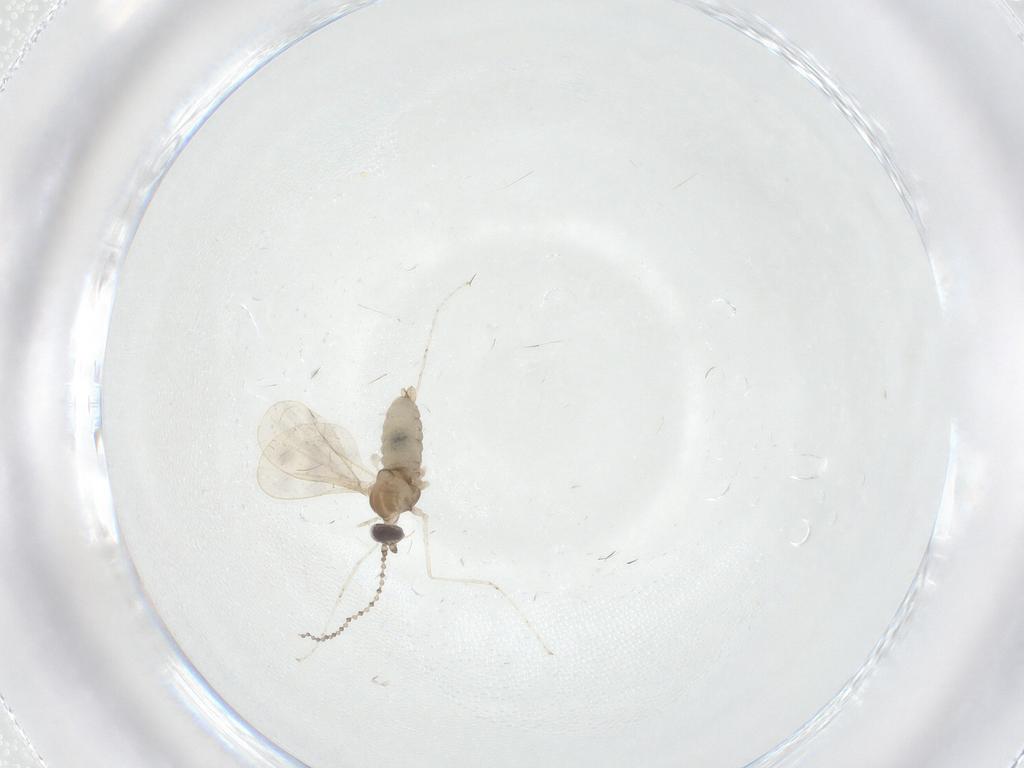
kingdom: Animalia
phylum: Arthropoda
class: Insecta
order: Diptera
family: Cecidomyiidae
